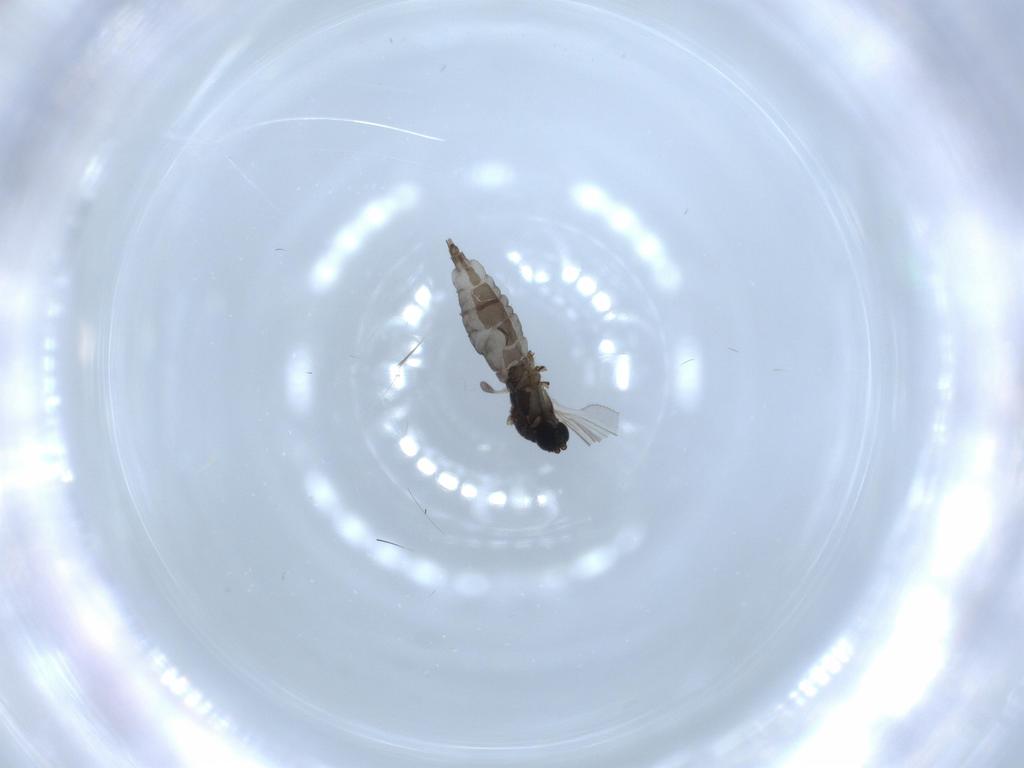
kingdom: Animalia
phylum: Arthropoda
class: Insecta
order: Diptera
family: Sciaridae
